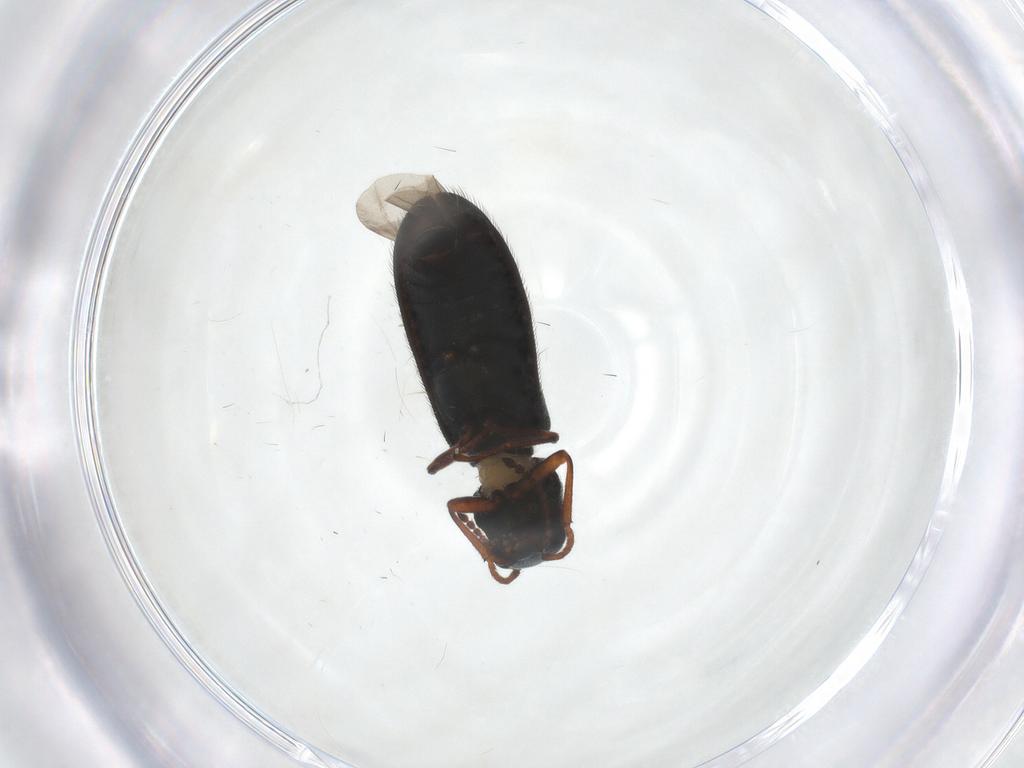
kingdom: Animalia
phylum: Arthropoda
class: Insecta
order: Coleoptera
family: Melyridae
